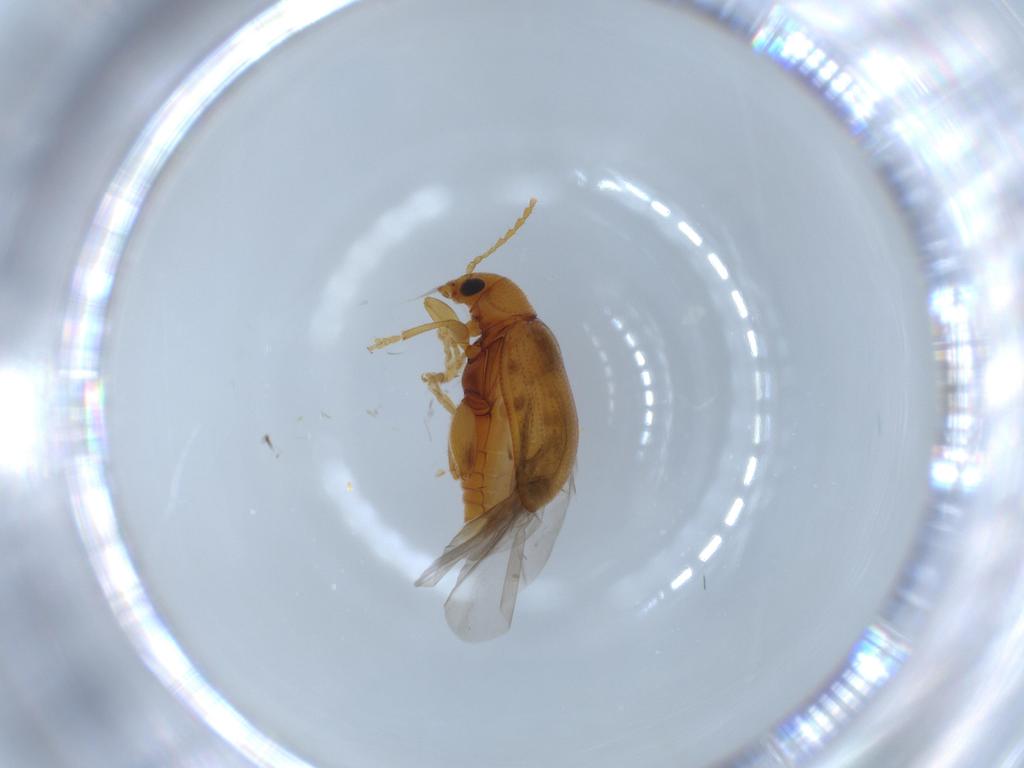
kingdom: Animalia
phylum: Arthropoda
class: Insecta
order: Coleoptera
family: Chrysomelidae
